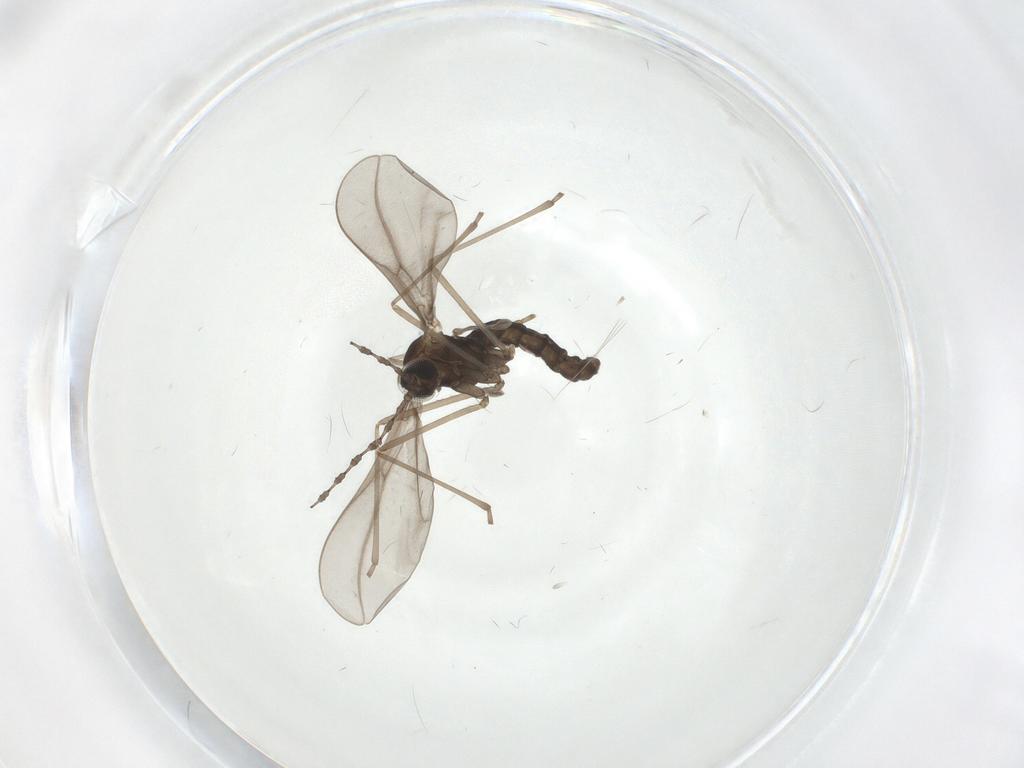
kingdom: Animalia
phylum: Arthropoda
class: Insecta
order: Diptera
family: Cecidomyiidae
